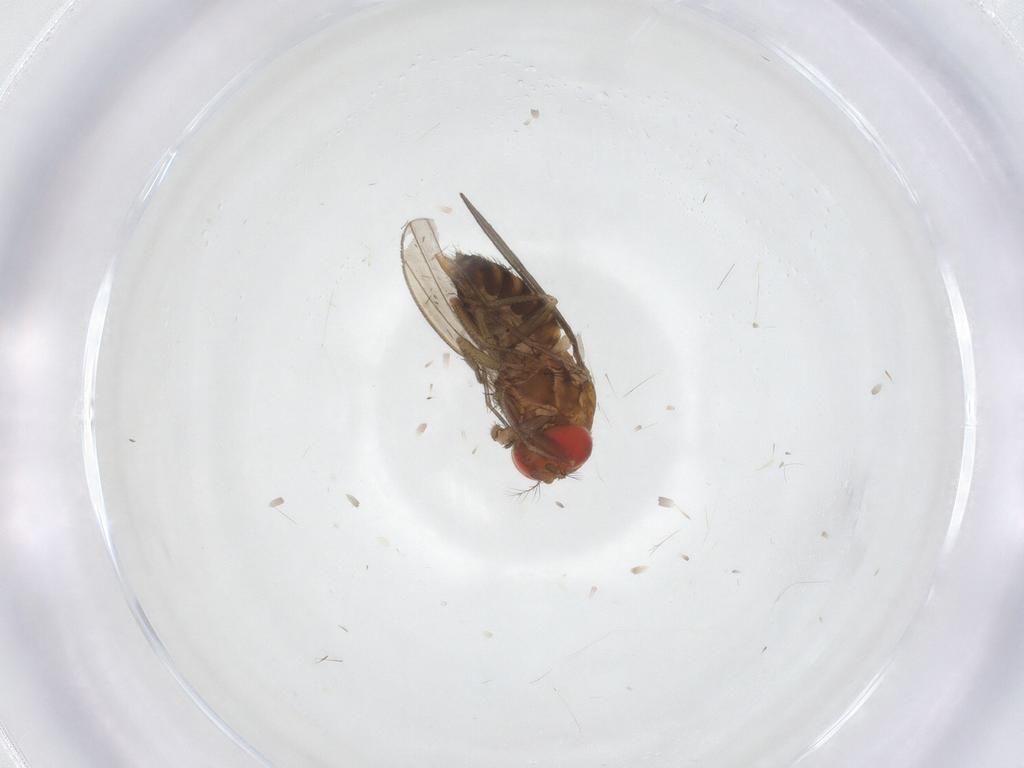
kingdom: Animalia
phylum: Arthropoda
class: Insecta
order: Diptera
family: Drosophilidae
